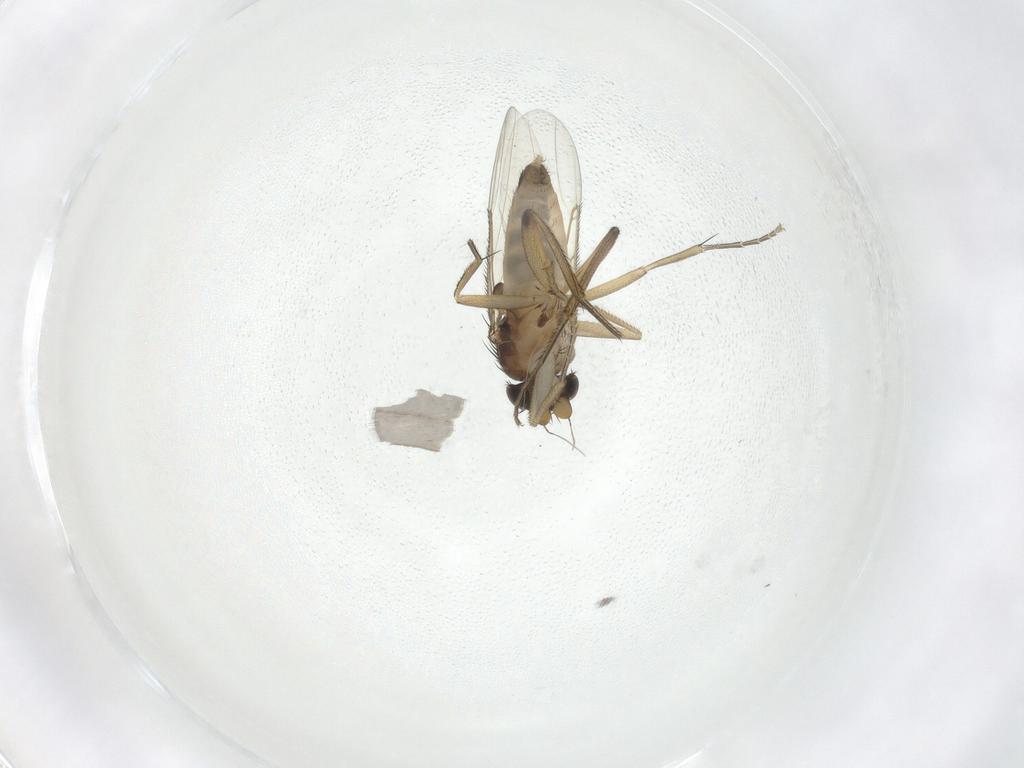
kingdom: Animalia
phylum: Arthropoda
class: Insecta
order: Diptera
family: Phoridae
